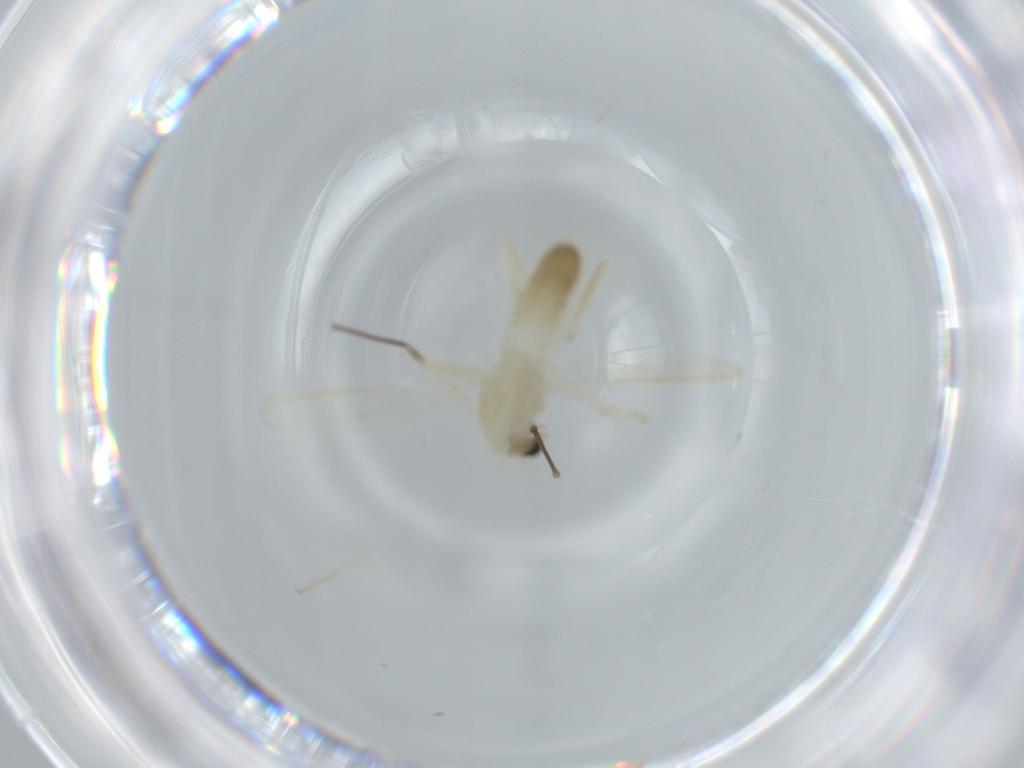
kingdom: Animalia
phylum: Arthropoda
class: Insecta
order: Diptera
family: Chironomidae
